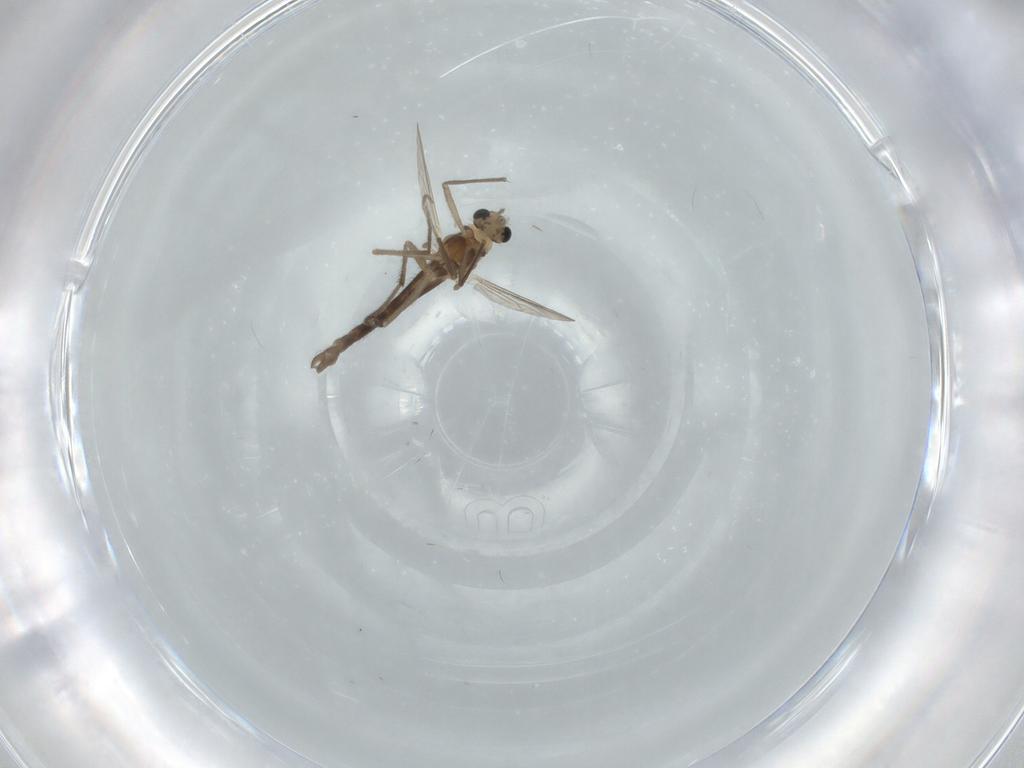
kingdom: Animalia
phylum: Arthropoda
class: Insecta
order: Diptera
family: Chironomidae
